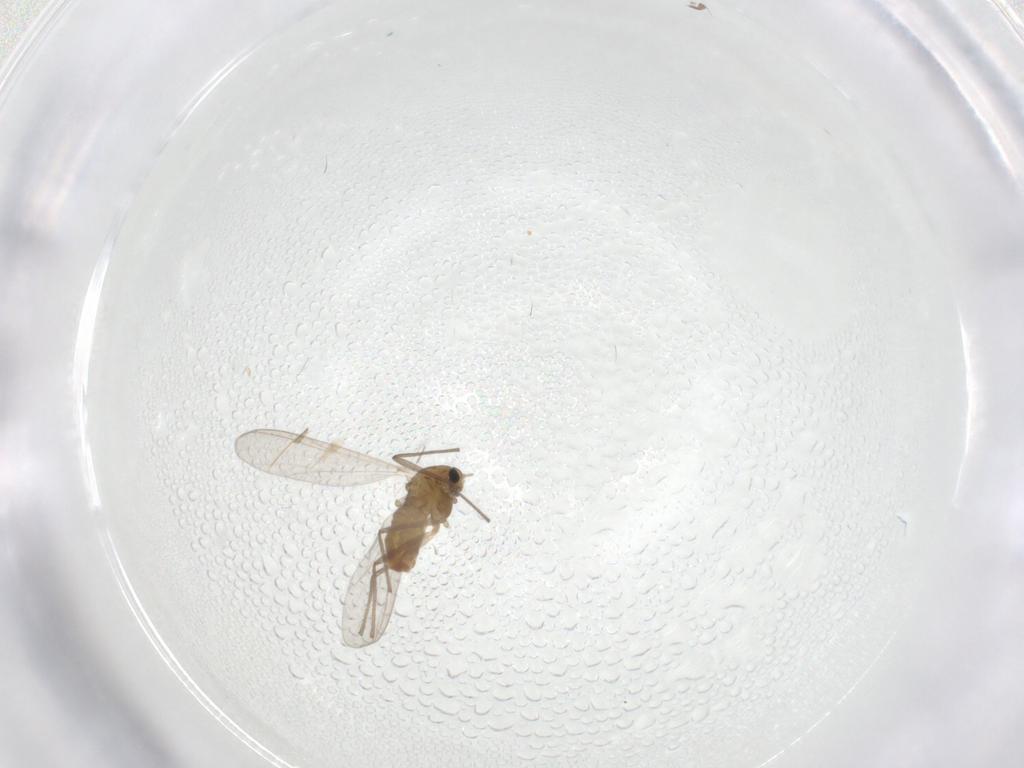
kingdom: Animalia
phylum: Arthropoda
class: Insecta
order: Diptera
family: Chironomidae
